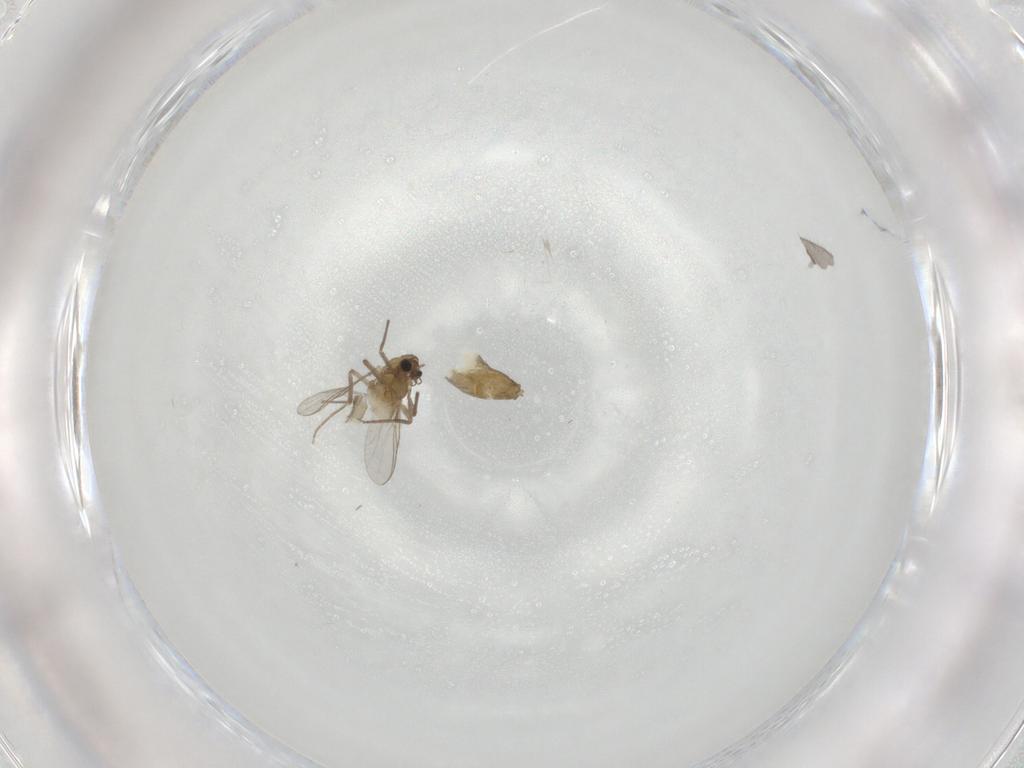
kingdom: Animalia
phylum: Arthropoda
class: Insecta
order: Diptera
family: Chironomidae
